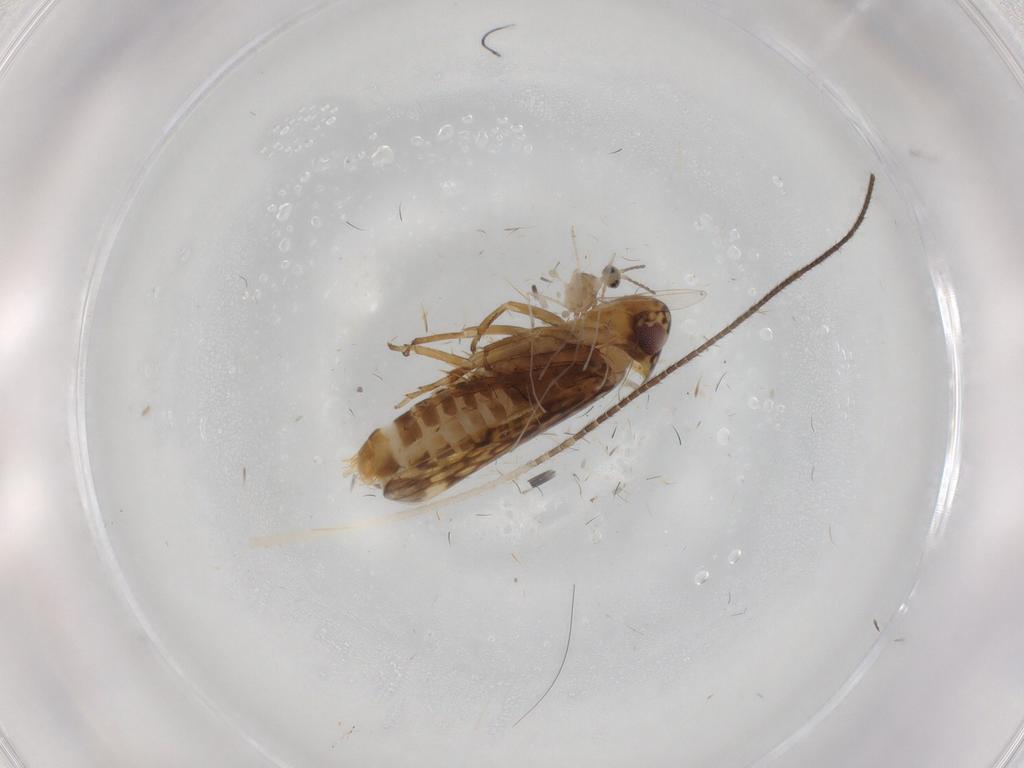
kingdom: Animalia
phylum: Arthropoda
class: Insecta
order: Hemiptera
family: Cicadellidae
